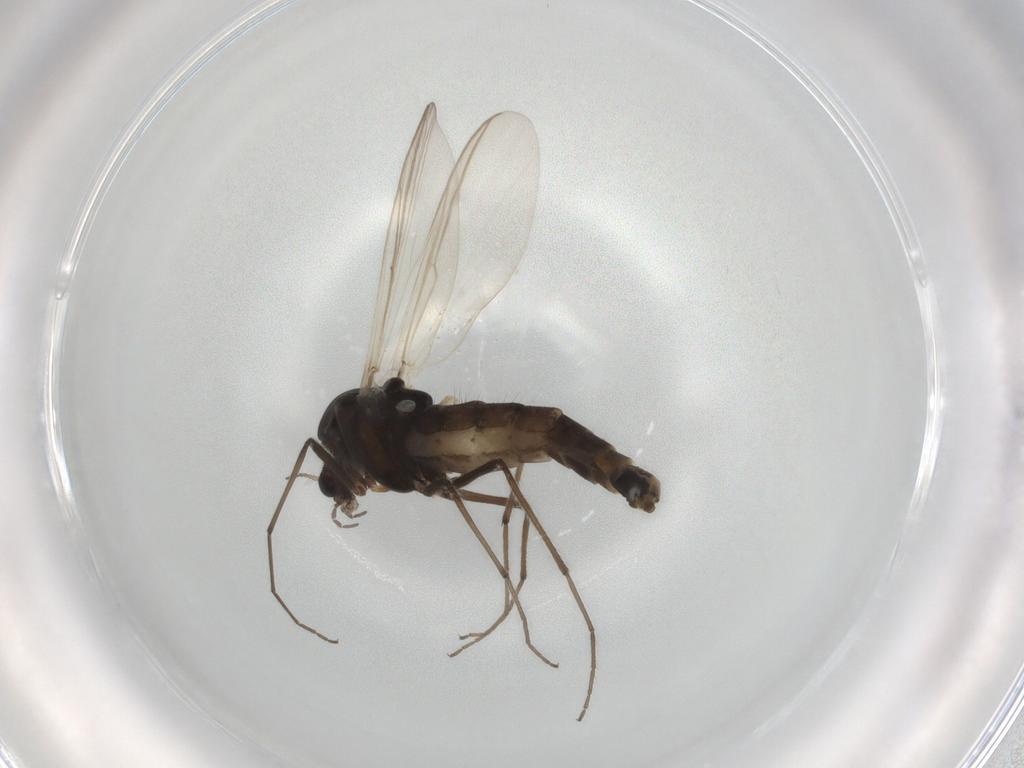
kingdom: Animalia
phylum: Arthropoda
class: Insecta
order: Diptera
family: Chironomidae
